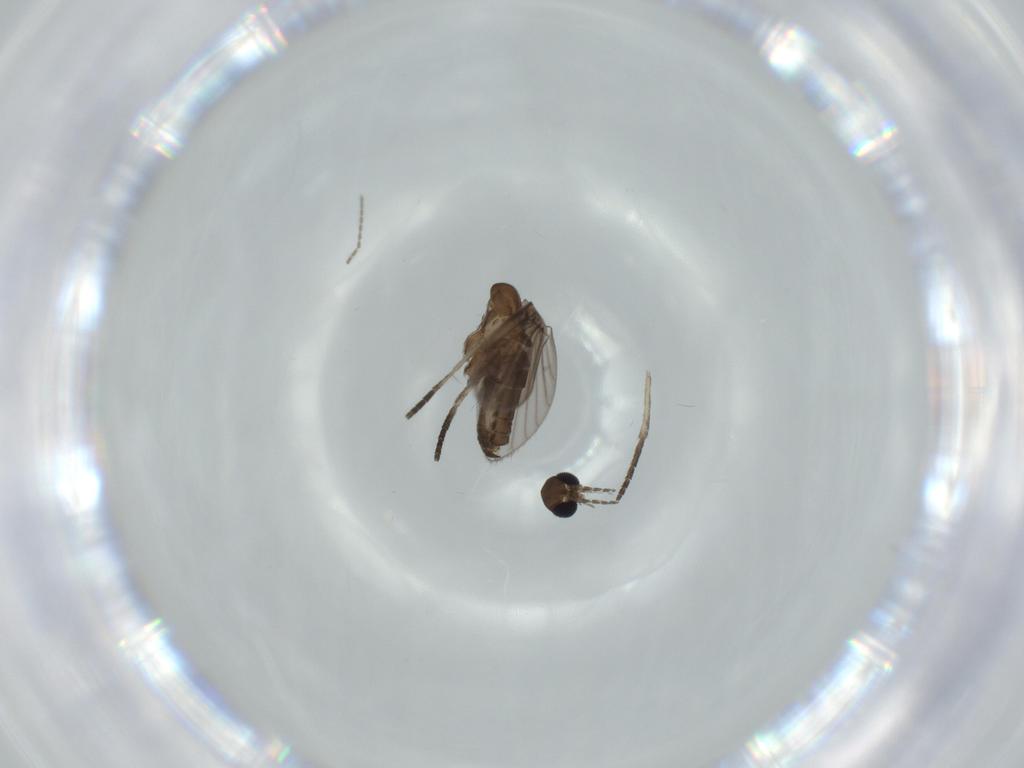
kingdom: Animalia
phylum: Arthropoda
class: Insecta
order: Diptera
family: Psychodidae
